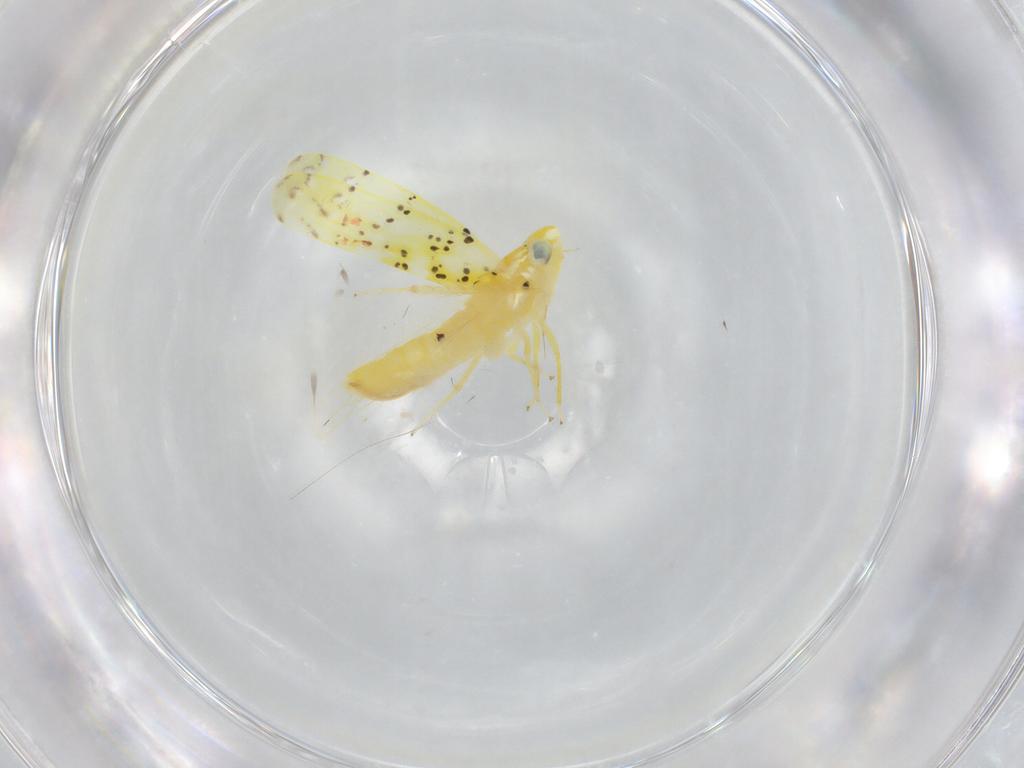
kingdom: Animalia
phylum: Arthropoda
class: Insecta
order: Hemiptera
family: Cicadellidae
